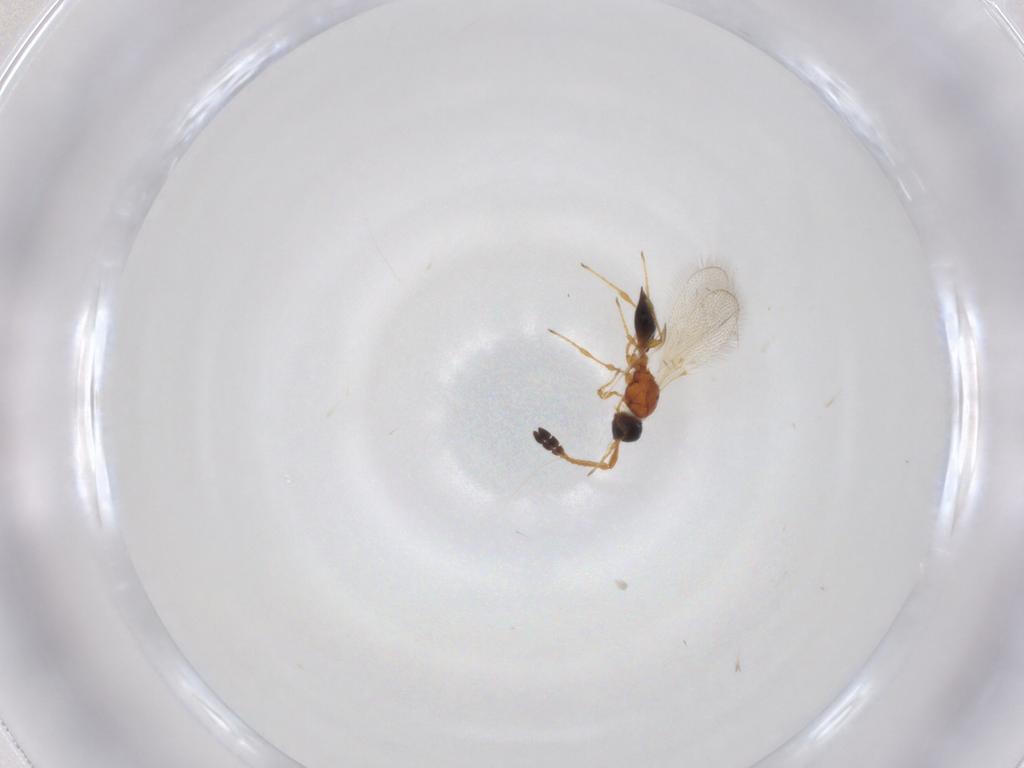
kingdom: Animalia
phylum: Arthropoda
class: Insecta
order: Hymenoptera
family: Diapriidae
